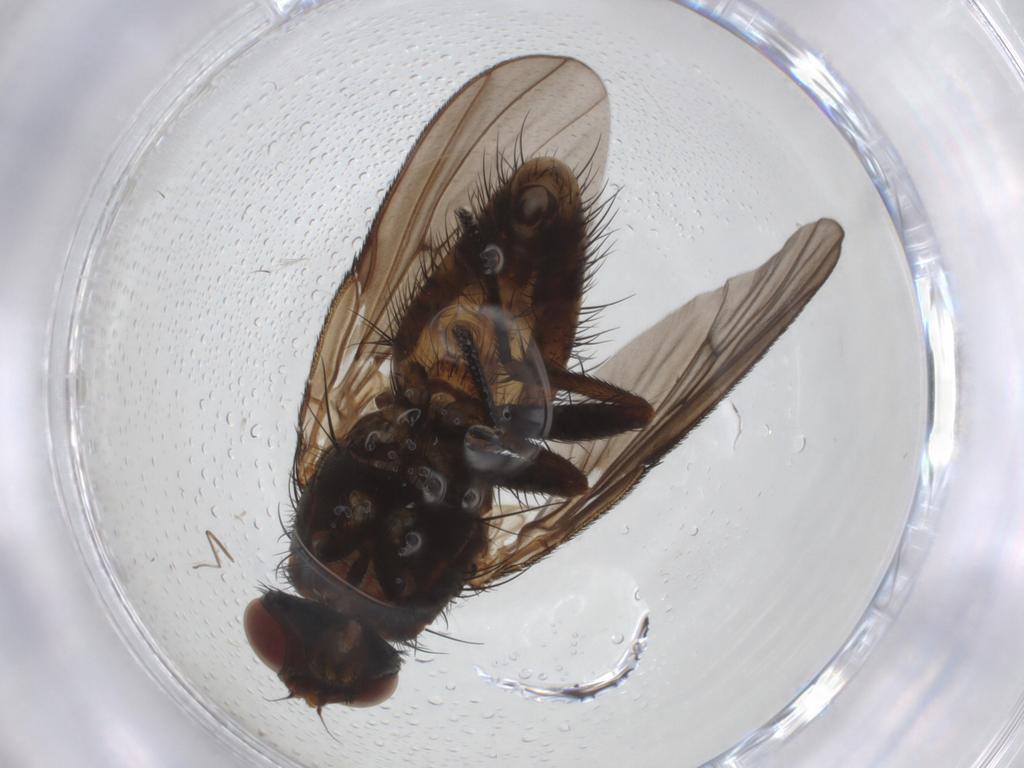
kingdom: Animalia
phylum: Arthropoda
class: Insecta
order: Diptera
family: Muscidae
